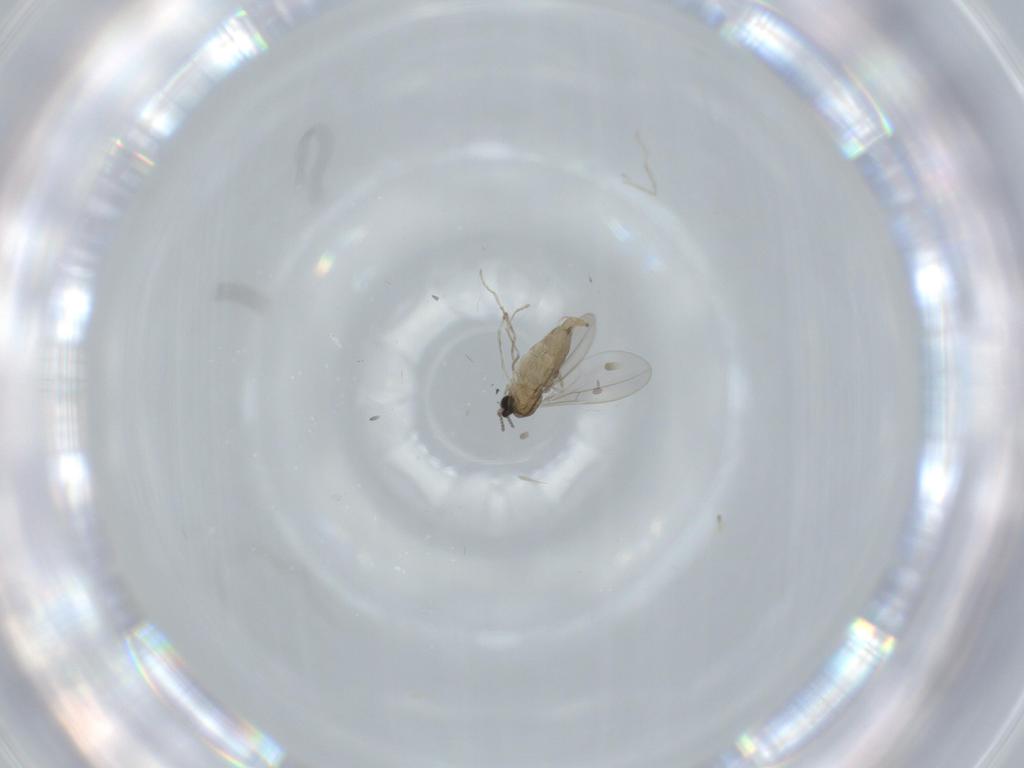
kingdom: Animalia
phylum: Arthropoda
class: Insecta
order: Diptera
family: Cecidomyiidae
